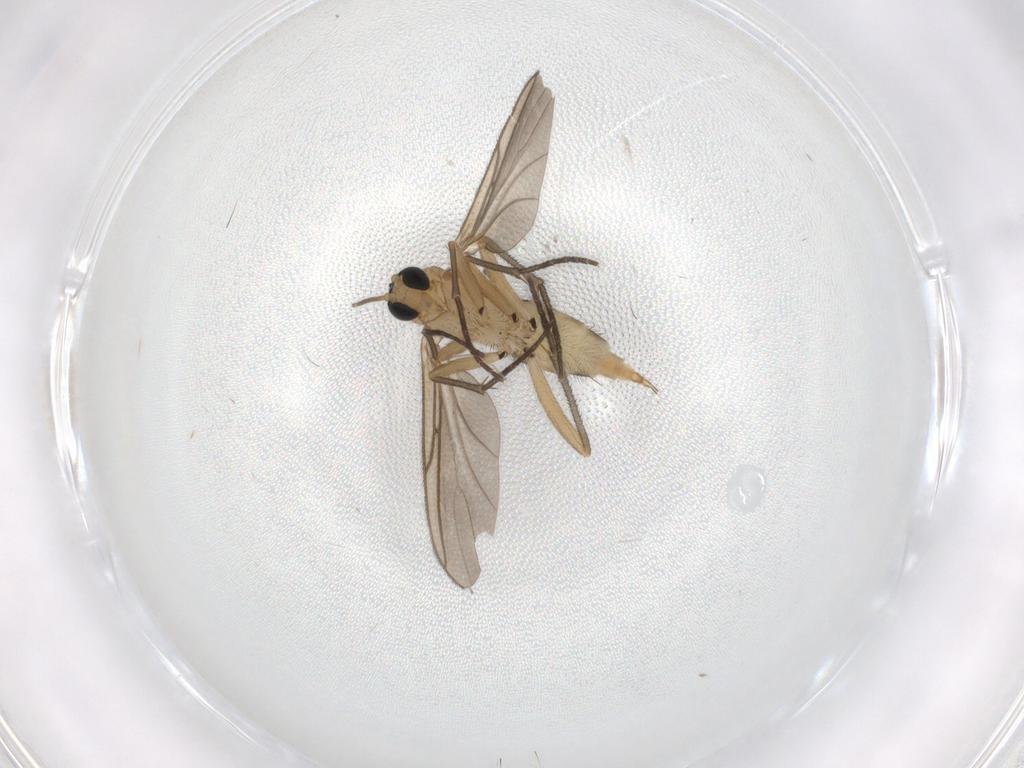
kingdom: Animalia
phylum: Arthropoda
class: Insecta
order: Diptera
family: Sciaridae
